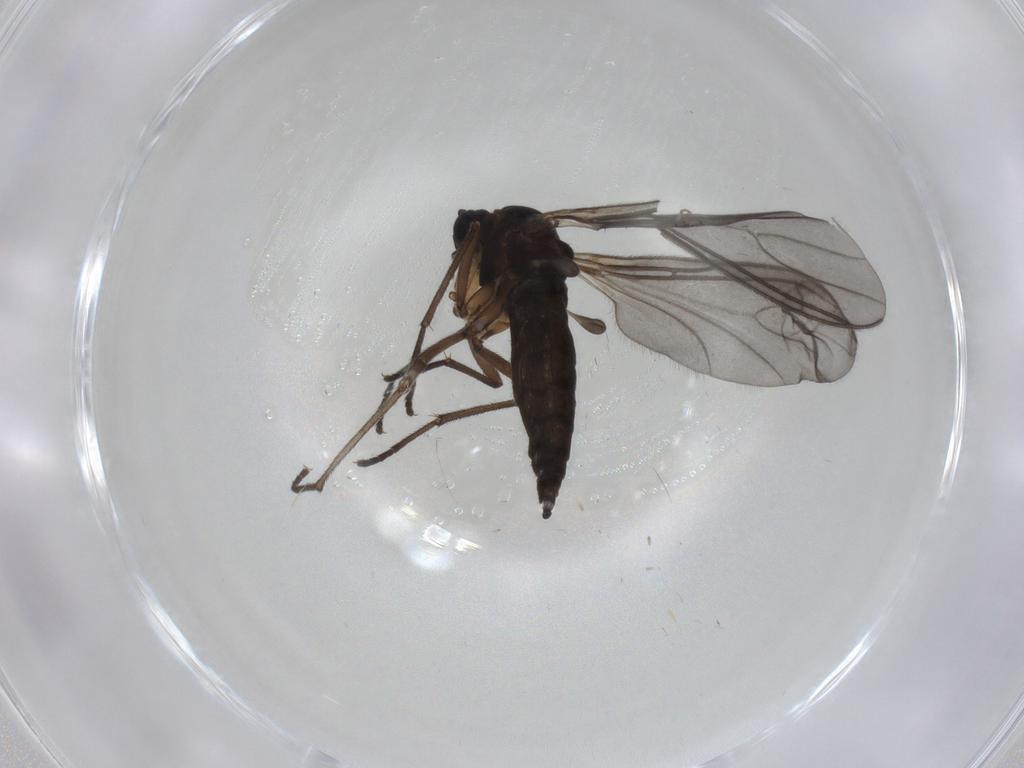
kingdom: Animalia
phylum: Arthropoda
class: Insecta
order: Diptera
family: Sciaridae
